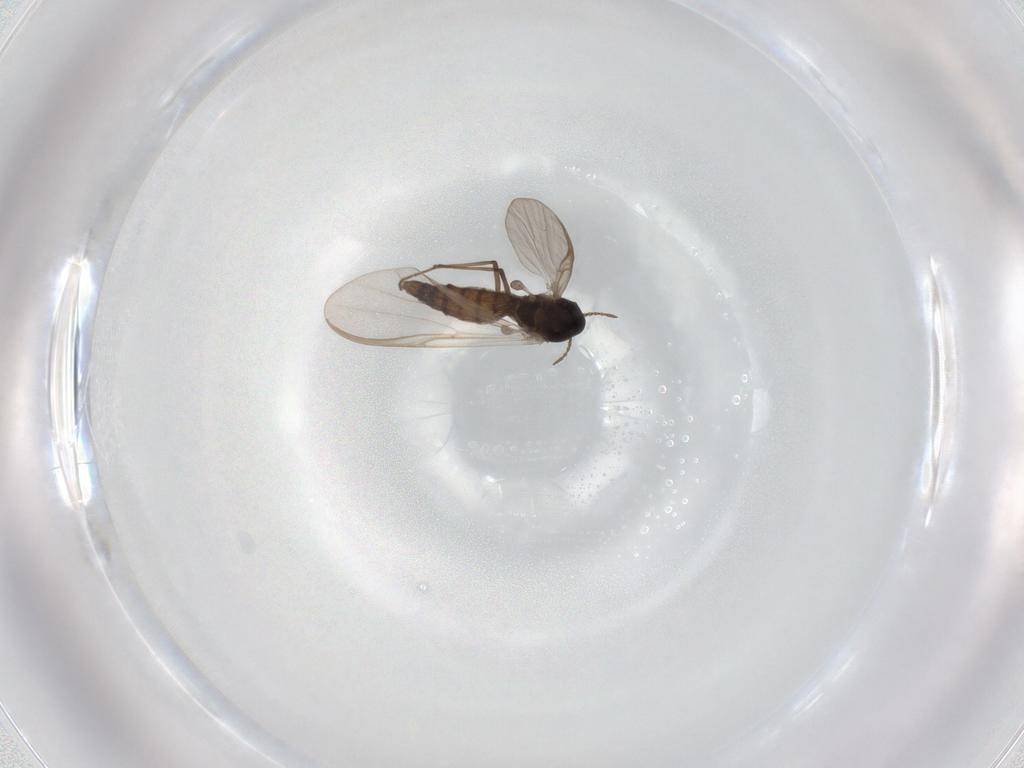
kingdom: Animalia
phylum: Arthropoda
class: Insecta
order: Diptera
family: Chironomidae
